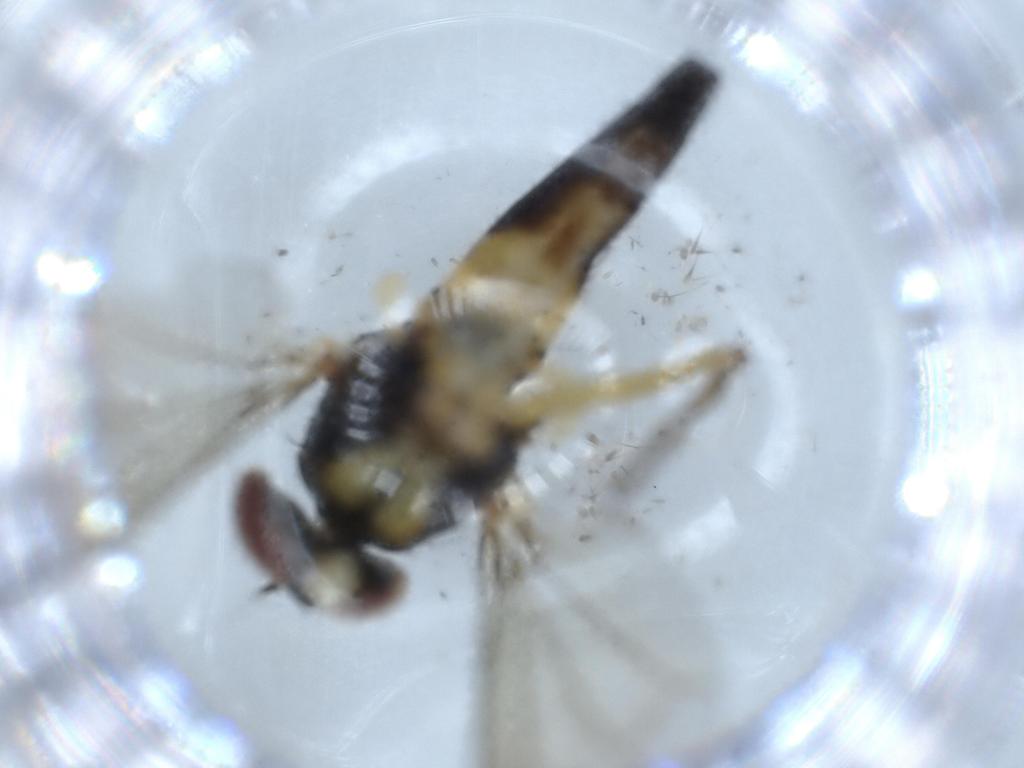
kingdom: Animalia
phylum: Arthropoda
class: Insecta
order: Diptera
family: Dolichopodidae
